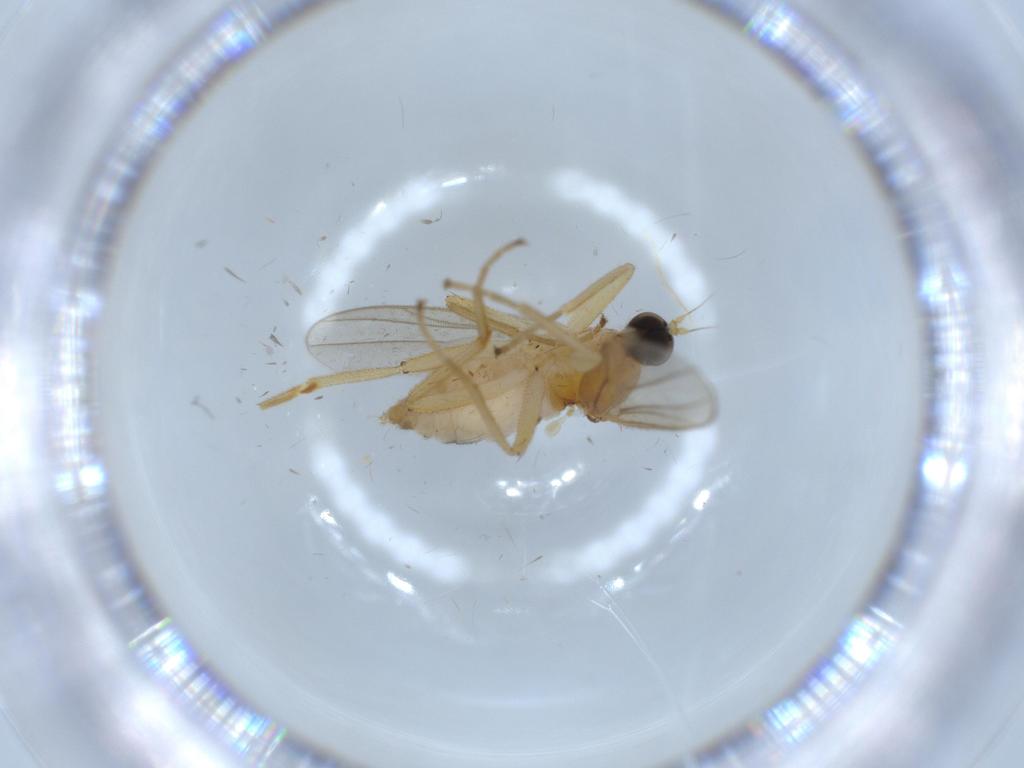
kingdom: Animalia
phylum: Arthropoda
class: Insecta
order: Diptera
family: Hybotidae
